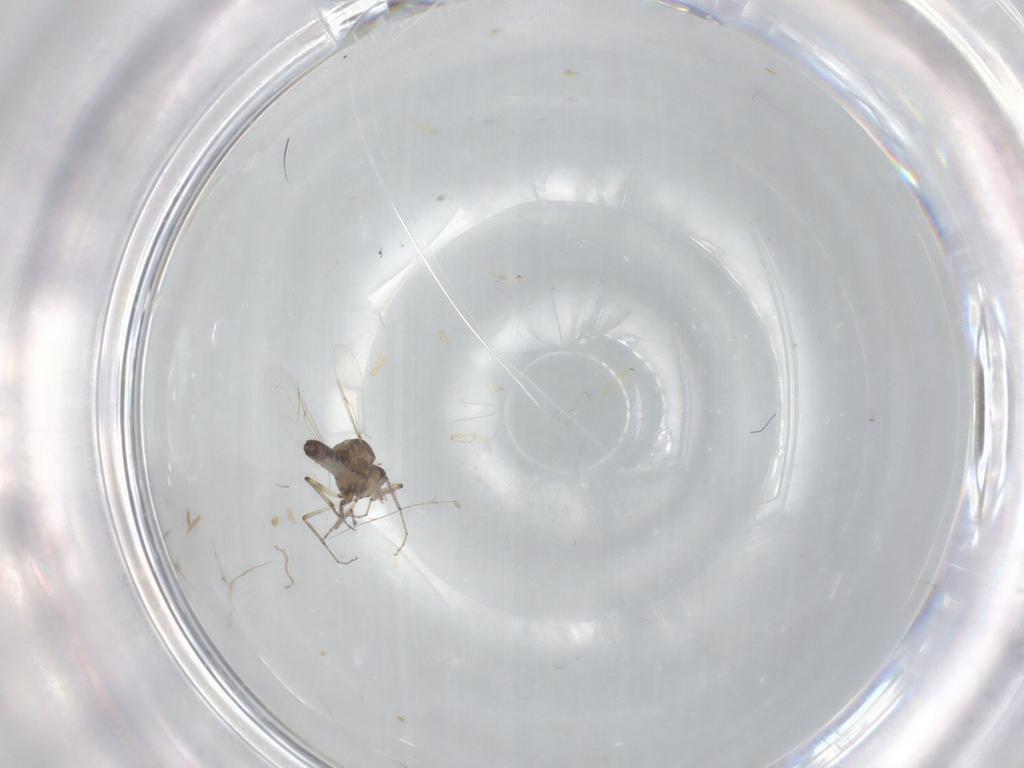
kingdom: Animalia
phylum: Arthropoda
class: Insecta
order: Diptera
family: Ceratopogonidae
